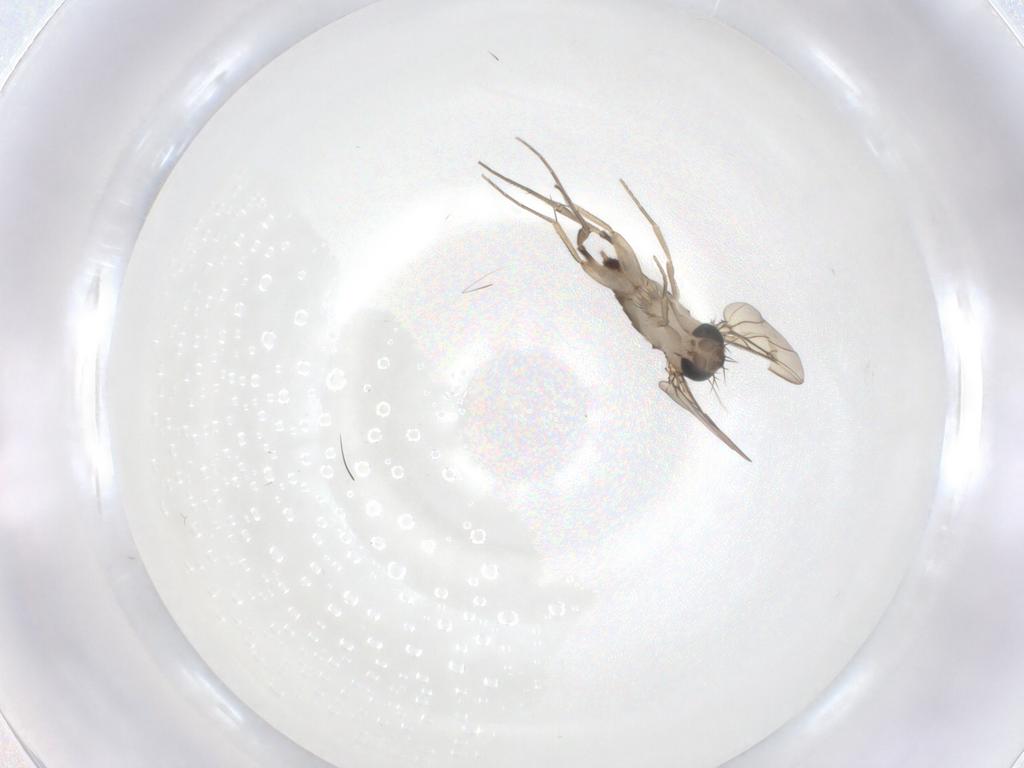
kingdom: Animalia
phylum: Arthropoda
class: Insecta
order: Diptera
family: Phoridae
